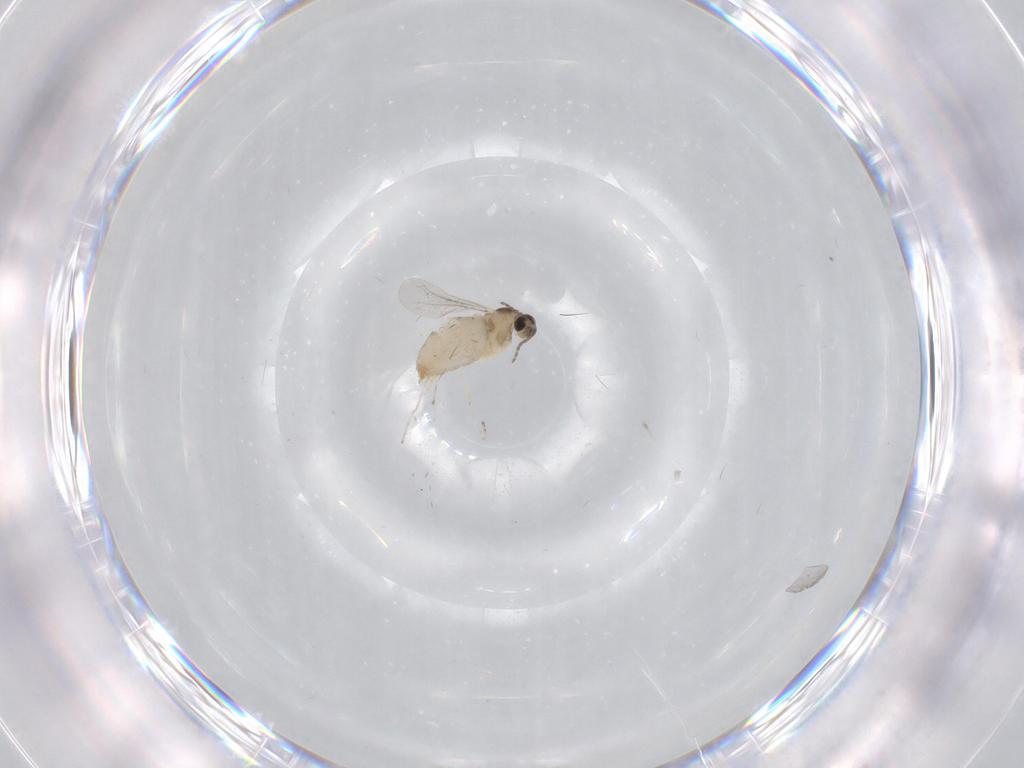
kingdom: Animalia
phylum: Arthropoda
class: Insecta
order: Diptera
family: Cecidomyiidae
